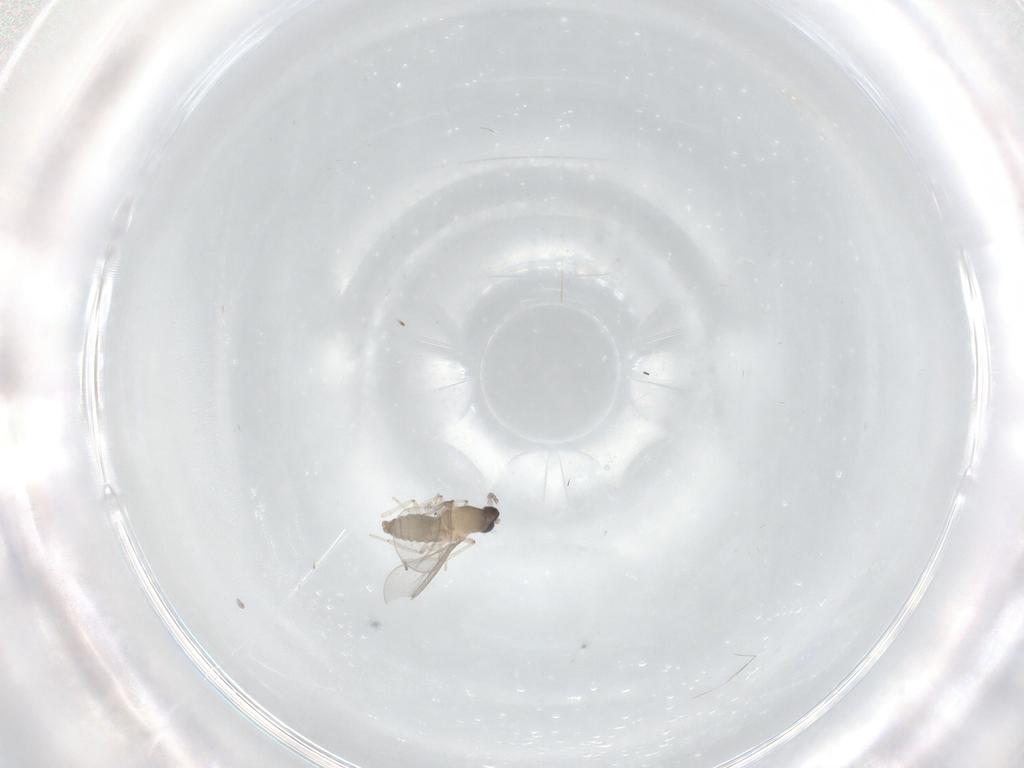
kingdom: Animalia
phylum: Arthropoda
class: Insecta
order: Diptera
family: Cecidomyiidae
